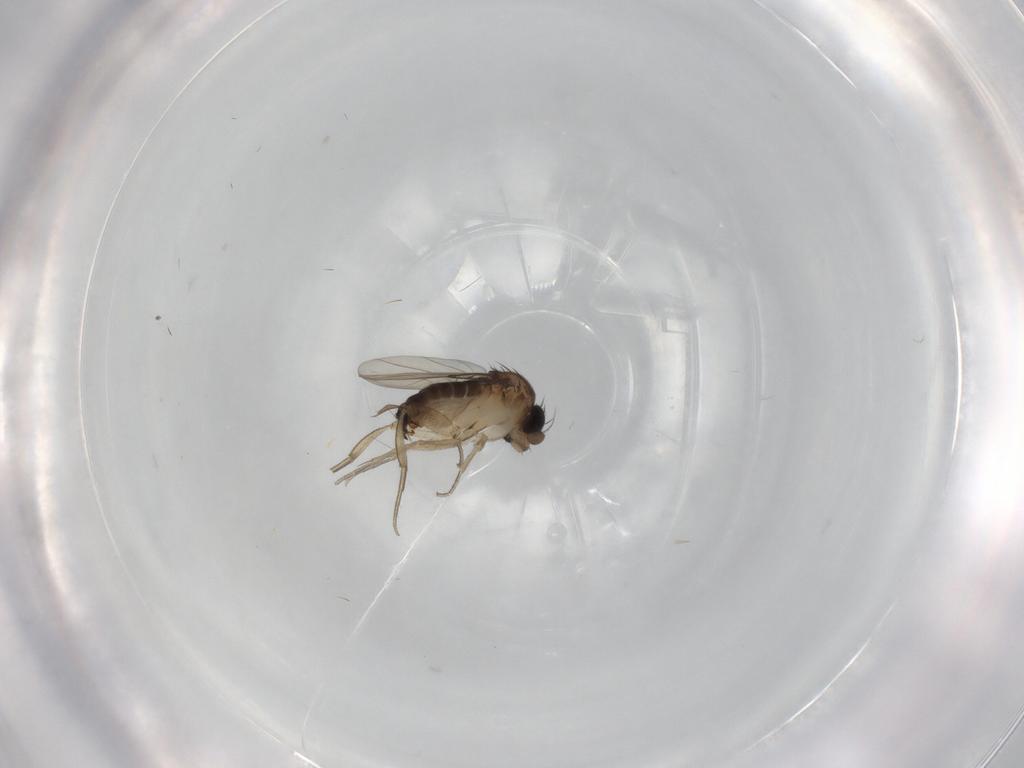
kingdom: Animalia
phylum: Arthropoda
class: Insecta
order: Diptera
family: Phoridae
